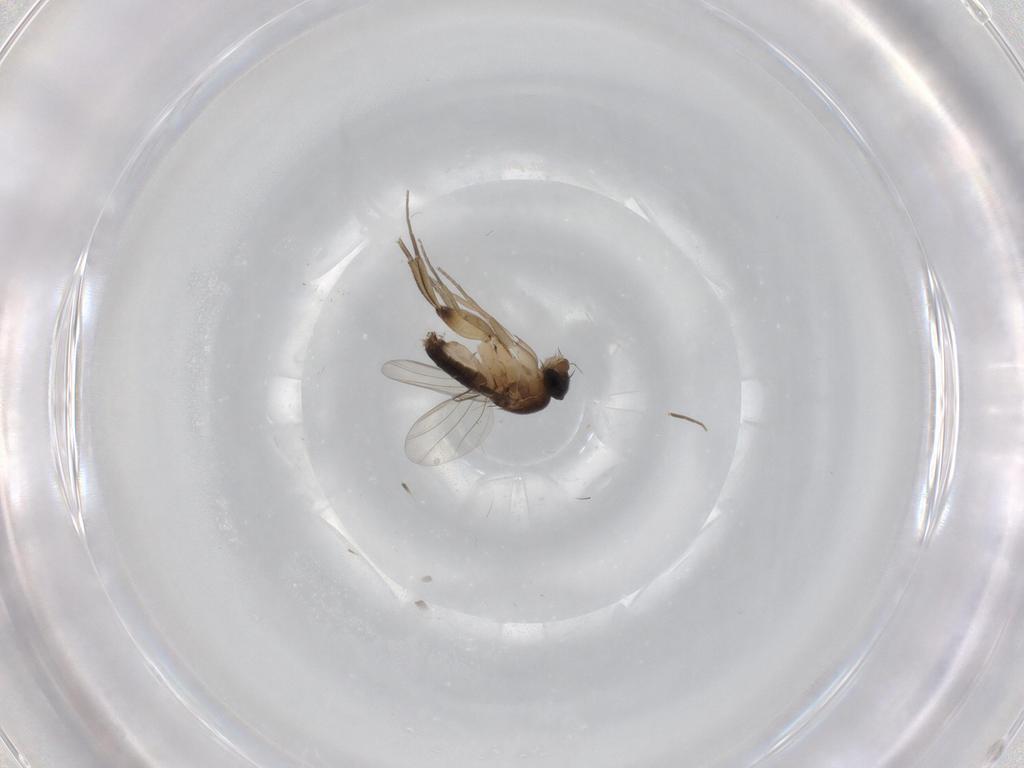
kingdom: Animalia
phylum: Arthropoda
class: Insecta
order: Diptera
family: Phoridae
